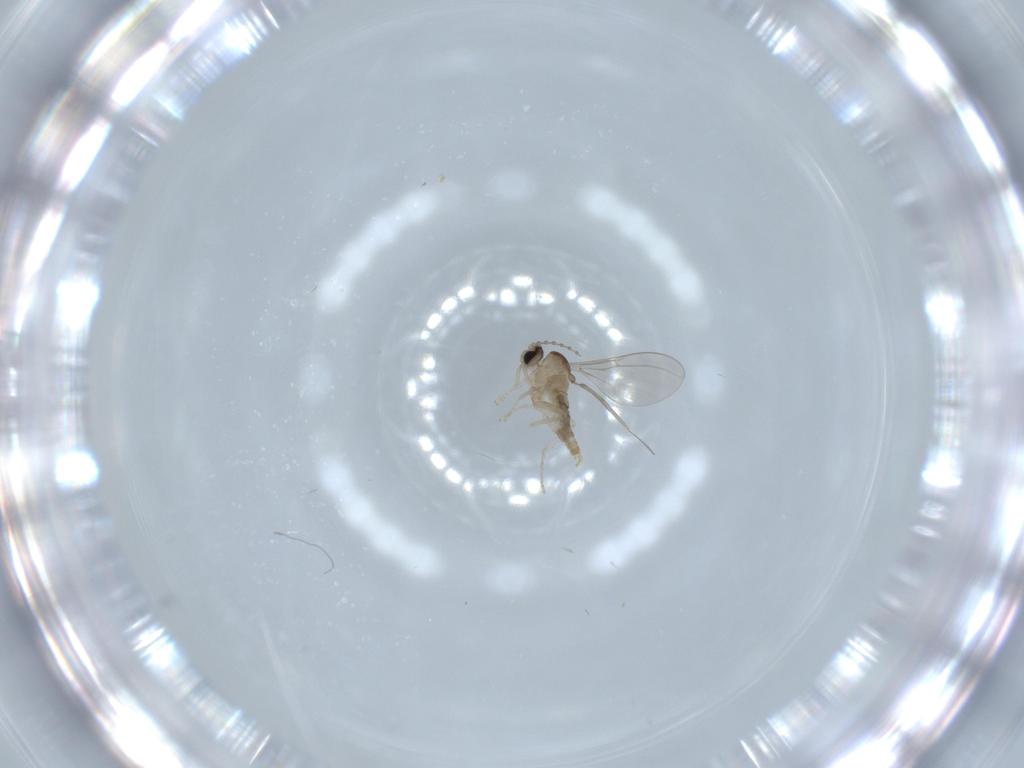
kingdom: Animalia
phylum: Arthropoda
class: Insecta
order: Diptera
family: Cecidomyiidae
